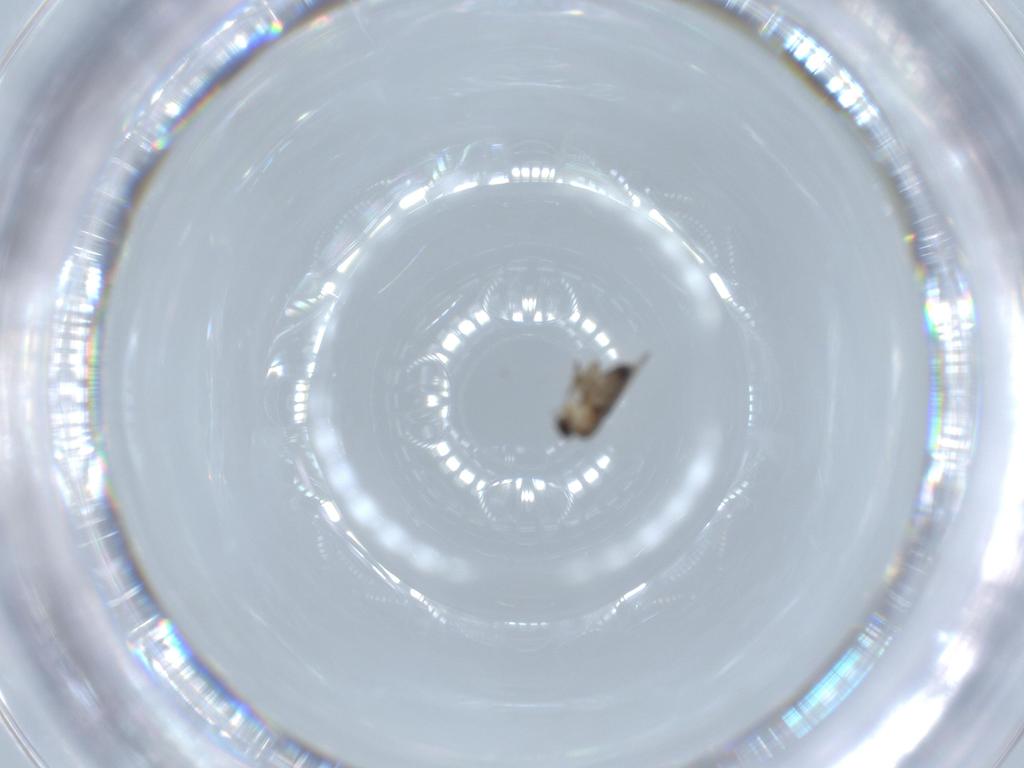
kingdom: Animalia
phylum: Arthropoda
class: Insecta
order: Diptera
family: Phoridae
